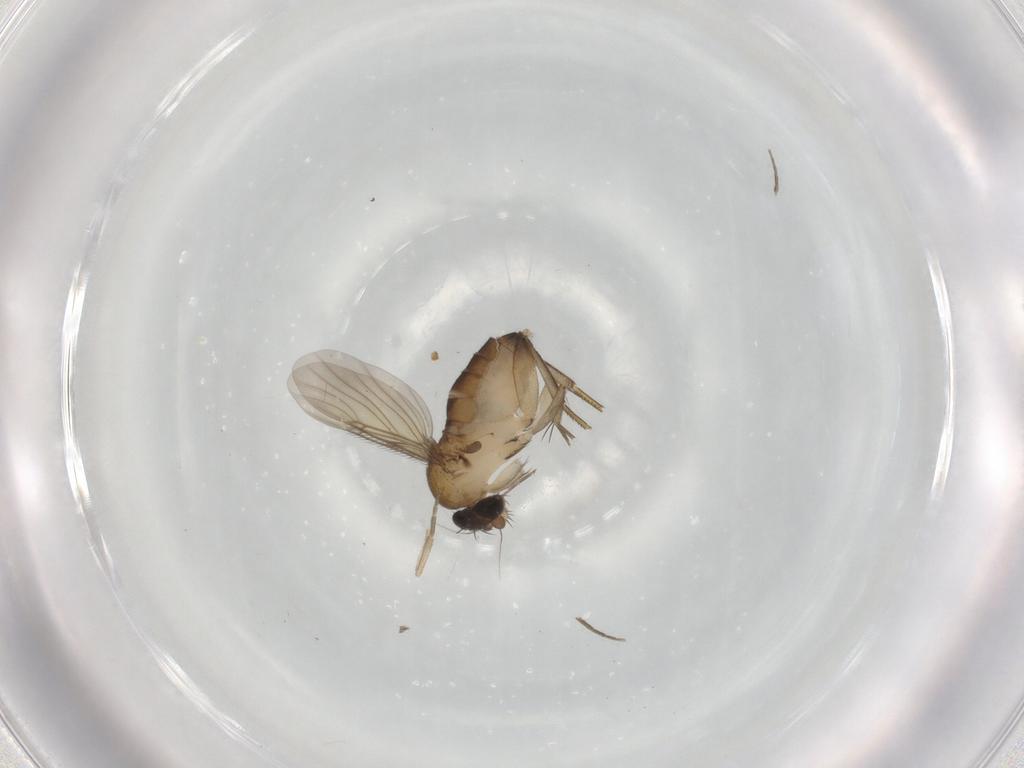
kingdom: Animalia
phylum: Arthropoda
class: Insecta
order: Diptera
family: Phoridae
